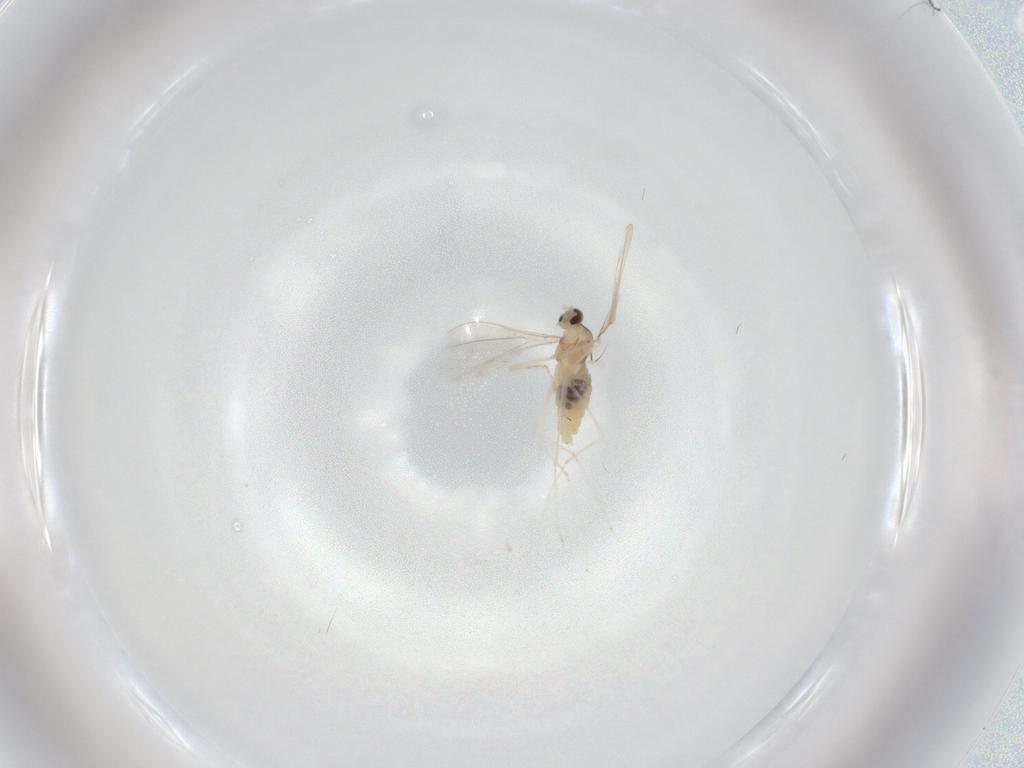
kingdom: Animalia
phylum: Arthropoda
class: Insecta
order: Diptera
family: Cecidomyiidae
